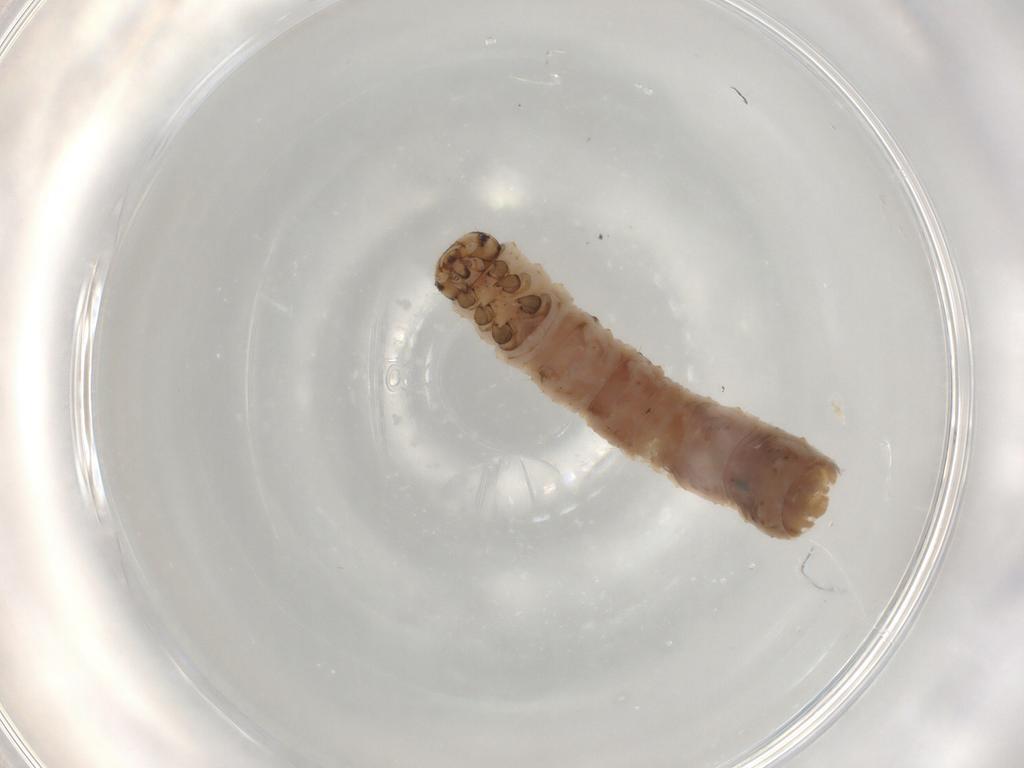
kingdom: Animalia
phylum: Arthropoda
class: Insecta
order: Lepidoptera
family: Geometridae
